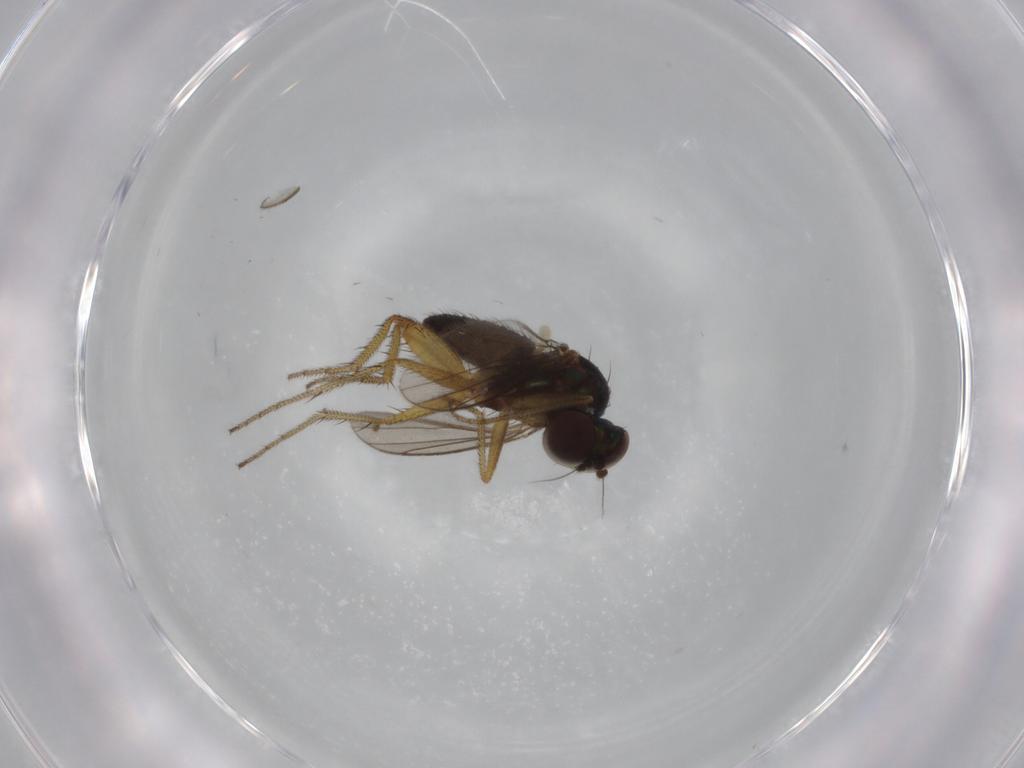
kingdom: Animalia
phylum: Arthropoda
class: Insecta
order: Diptera
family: Dolichopodidae
